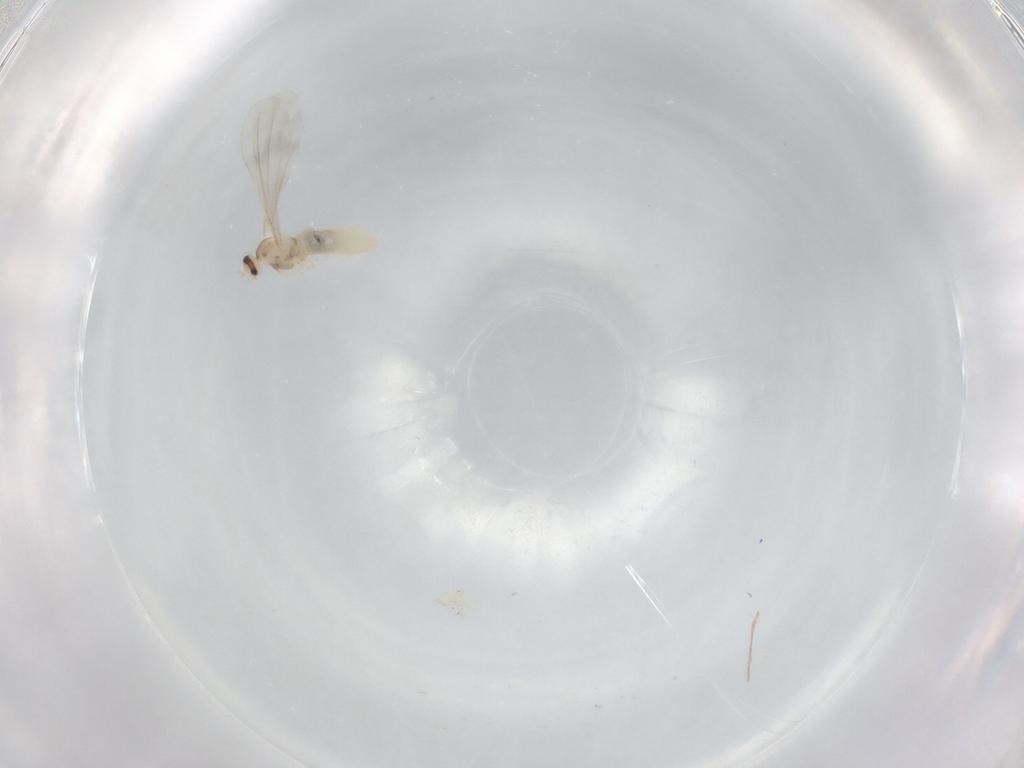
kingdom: Animalia
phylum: Arthropoda
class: Insecta
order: Diptera
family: Cecidomyiidae
